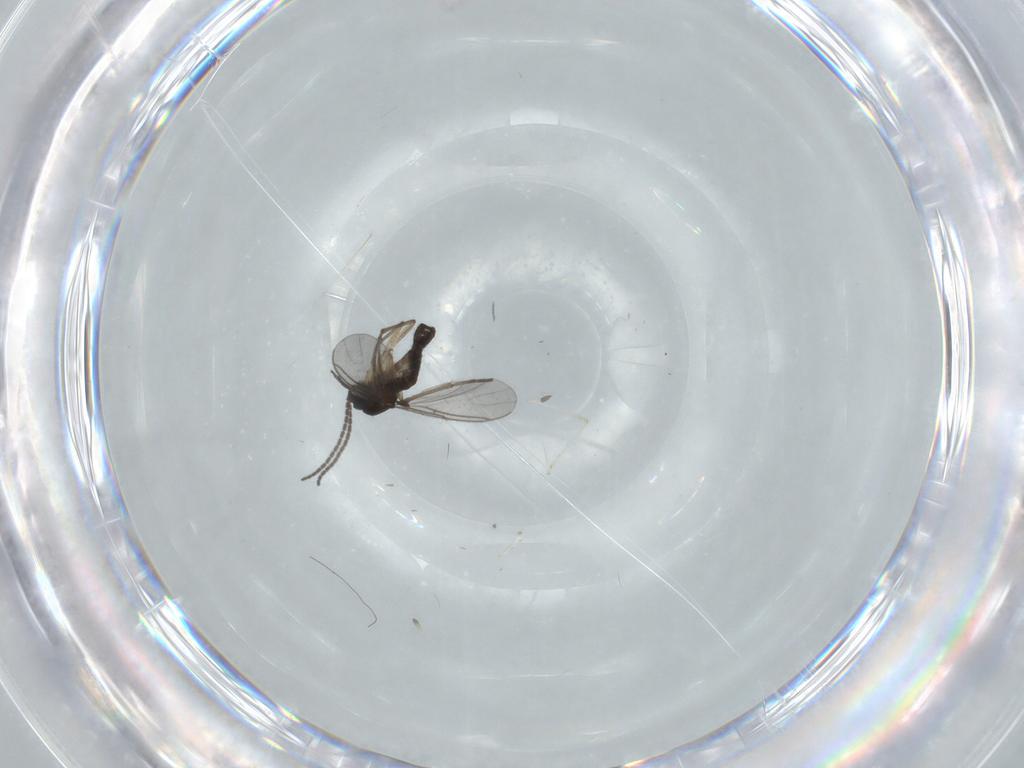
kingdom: Animalia
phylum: Arthropoda
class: Insecta
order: Diptera
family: Sciaridae
